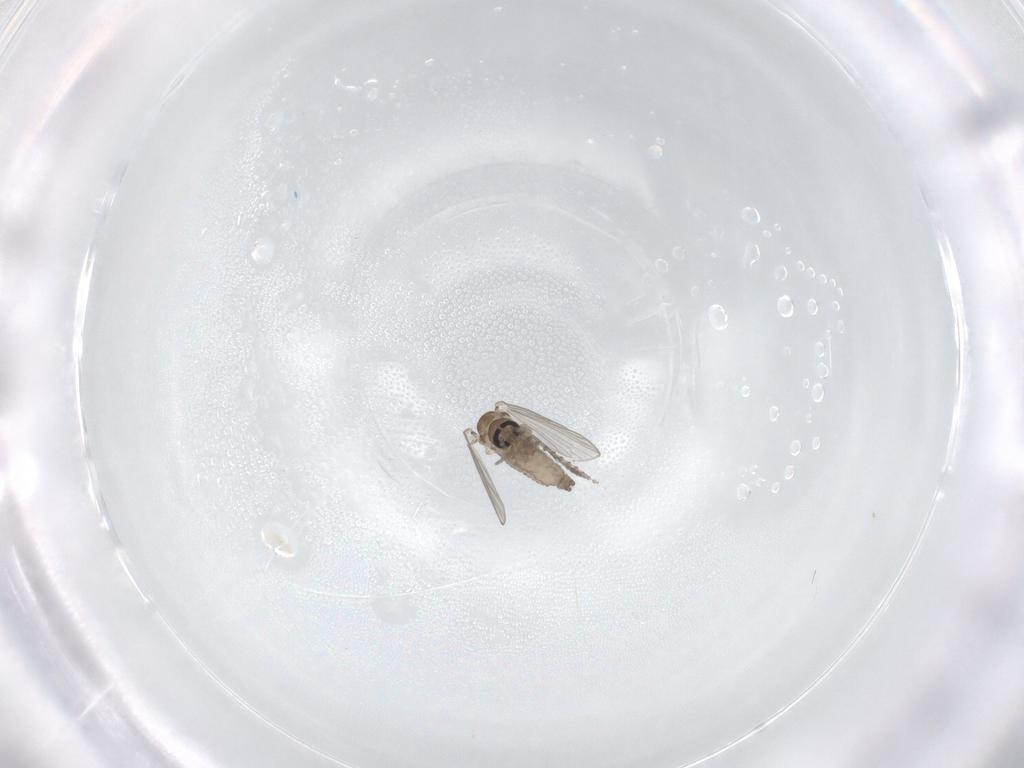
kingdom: Animalia
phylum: Arthropoda
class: Insecta
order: Diptera
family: Psychodidae
